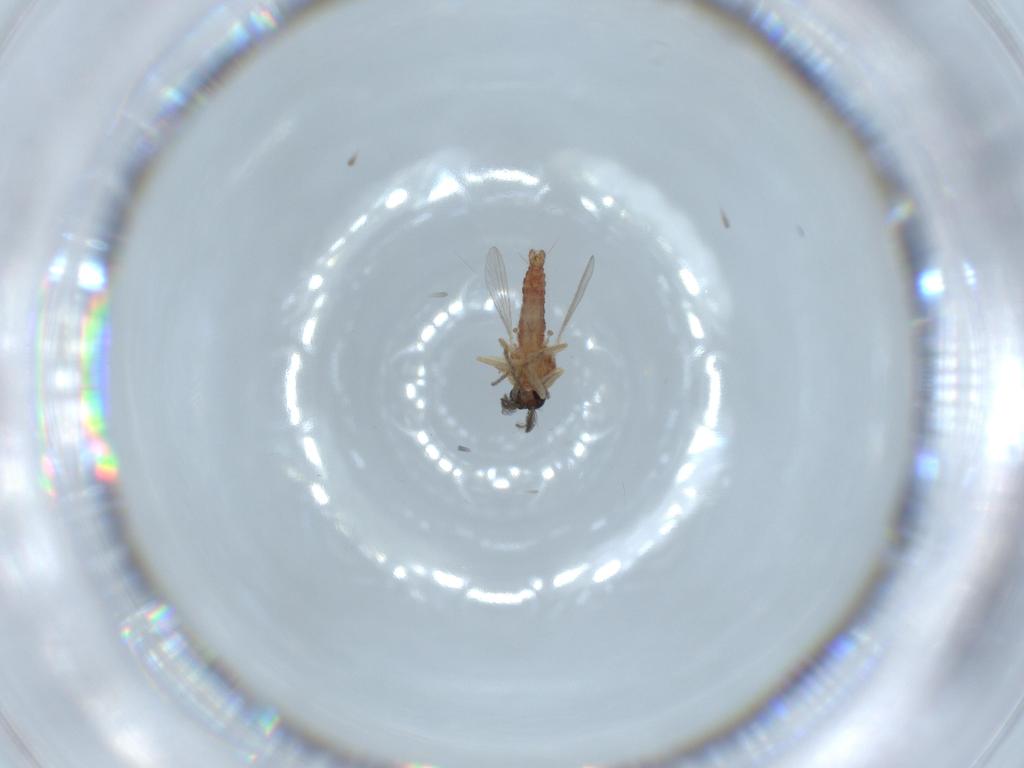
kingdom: Animalia
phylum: Arthropoda
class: Insecta
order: Diptera
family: Ceratopogonidae
